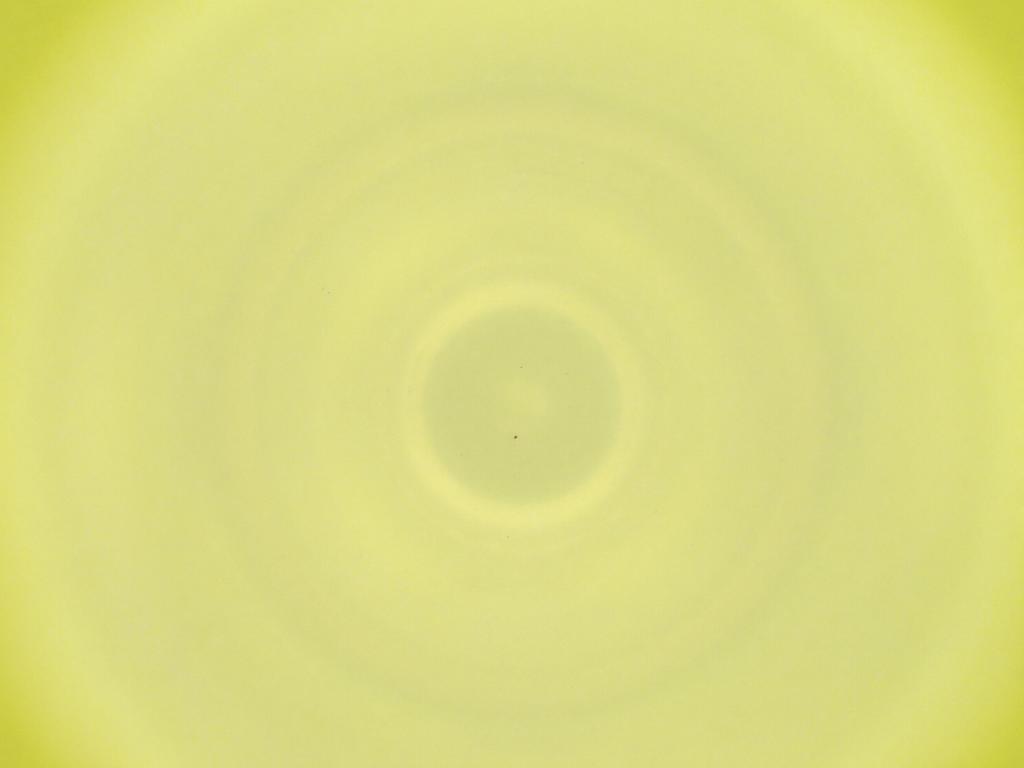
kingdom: Animalia
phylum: Arthropoda
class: Insecta
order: Diptera
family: Cecidomyiidae
